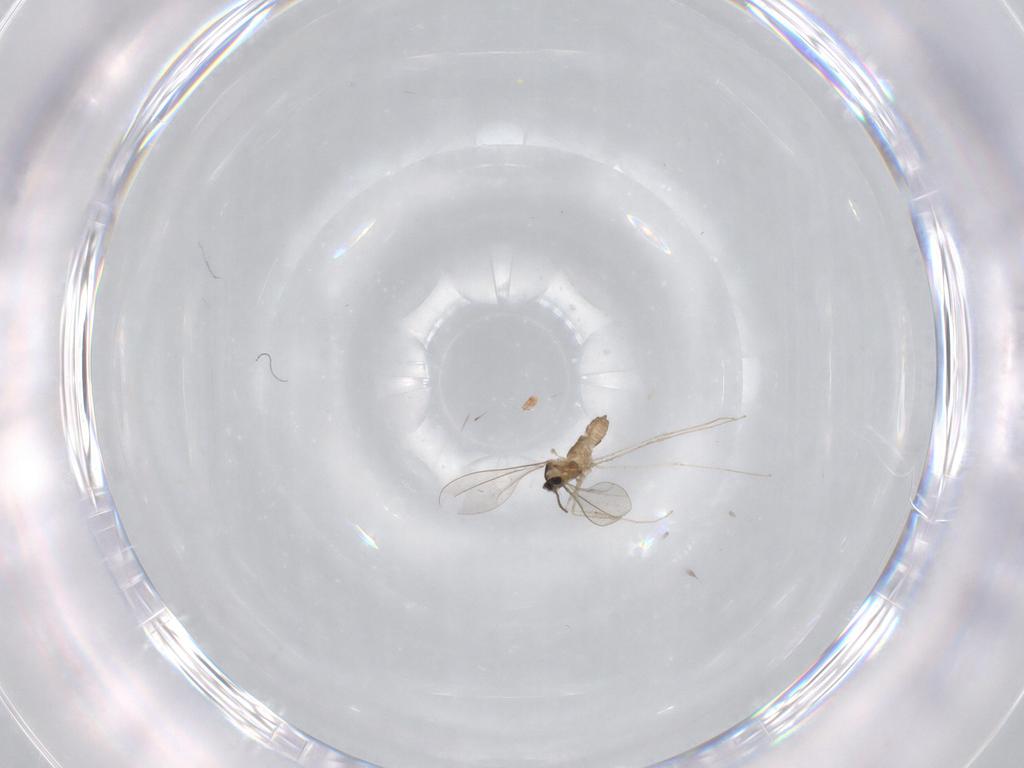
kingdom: Animalia
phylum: Arthropoda
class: Insecta
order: Diptera
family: Cecidomyiidae
